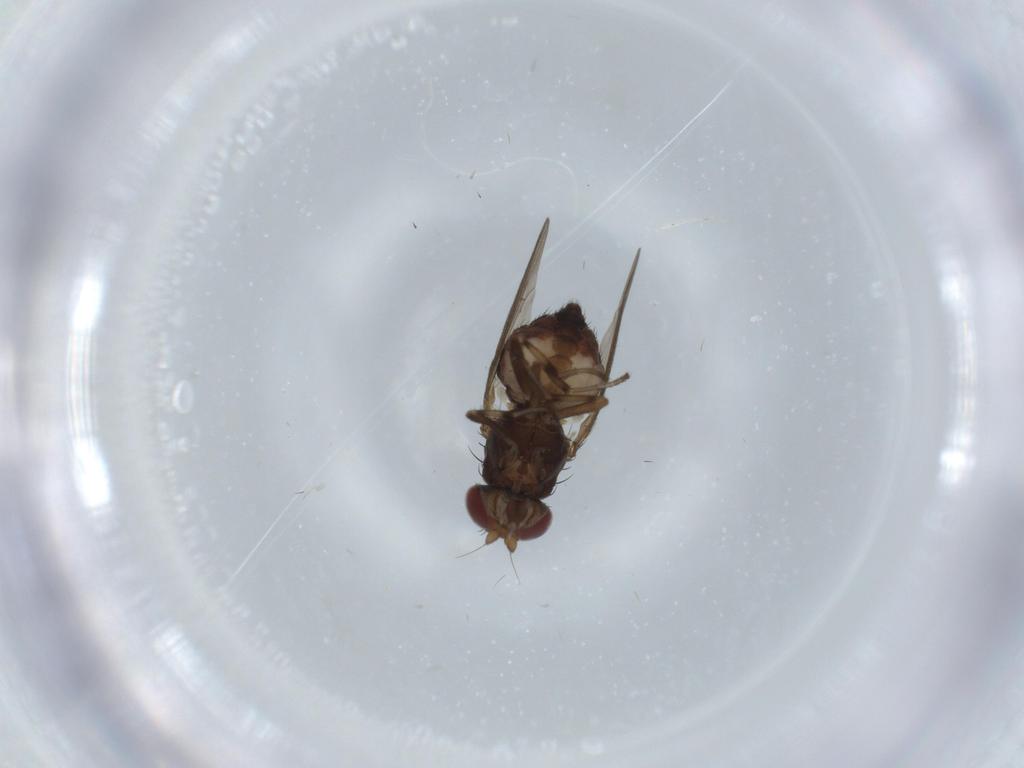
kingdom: Animalia
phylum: Arthropoda
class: Insecta
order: Diptera
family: Heleomyzidae
